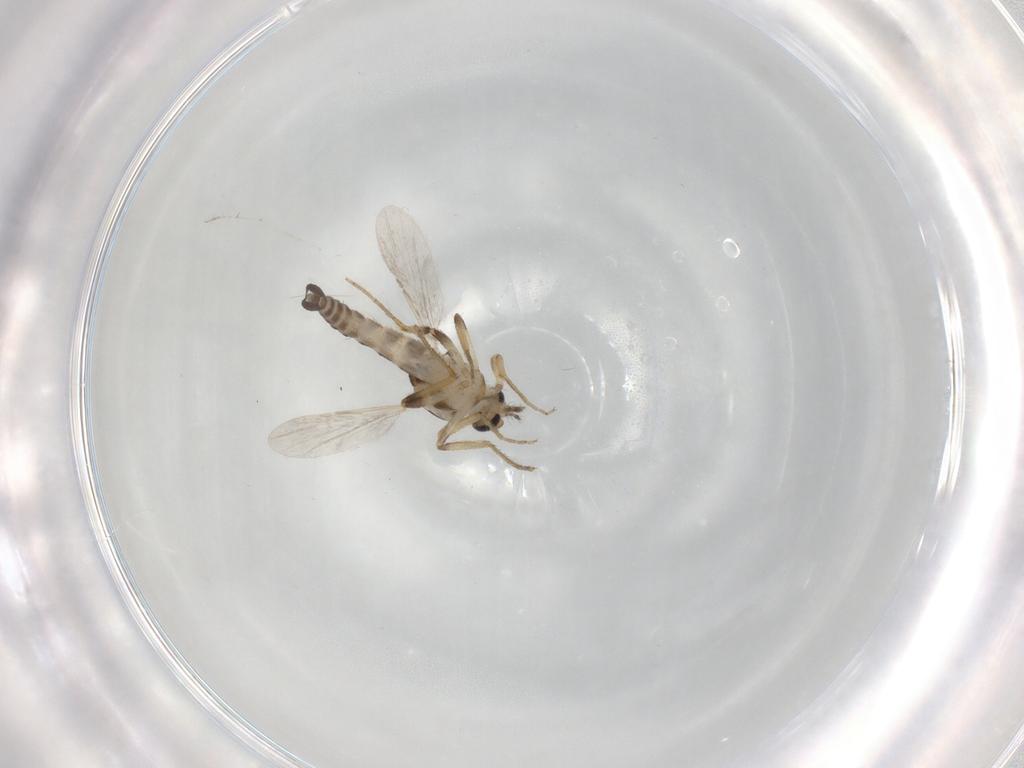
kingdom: Animalia
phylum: Arthropoda
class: Insecta
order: Diptera
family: Ceratopogonidae
